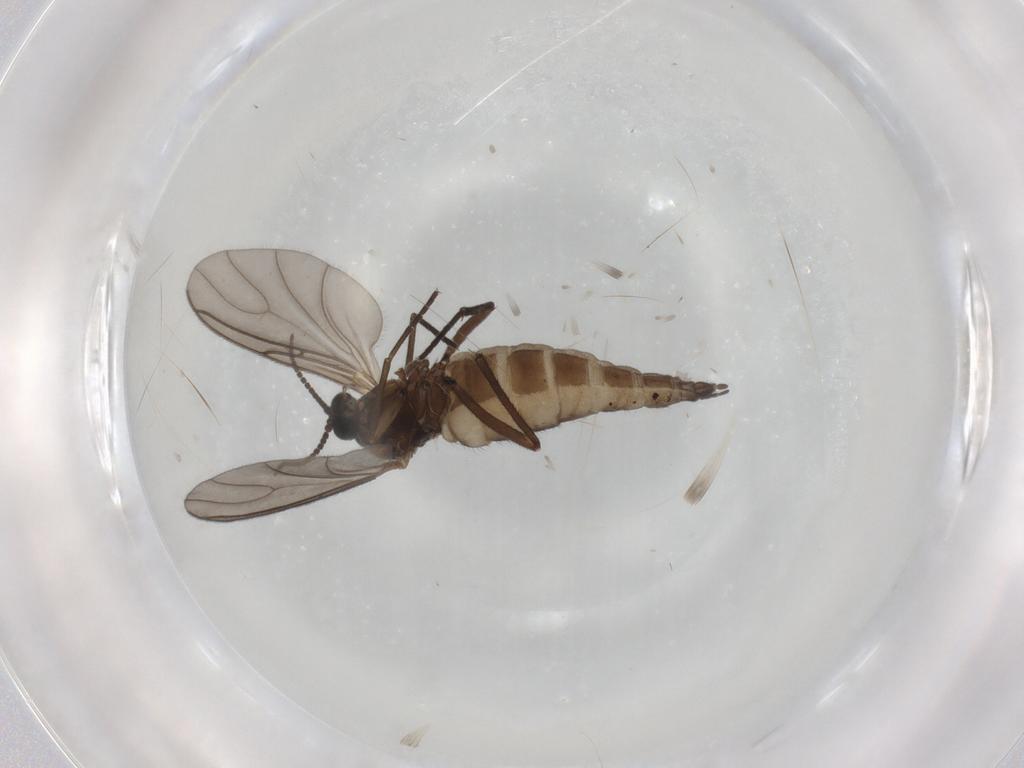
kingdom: Animalia
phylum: Arthropoda
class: Insecta
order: Diptera
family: Sciaridae
